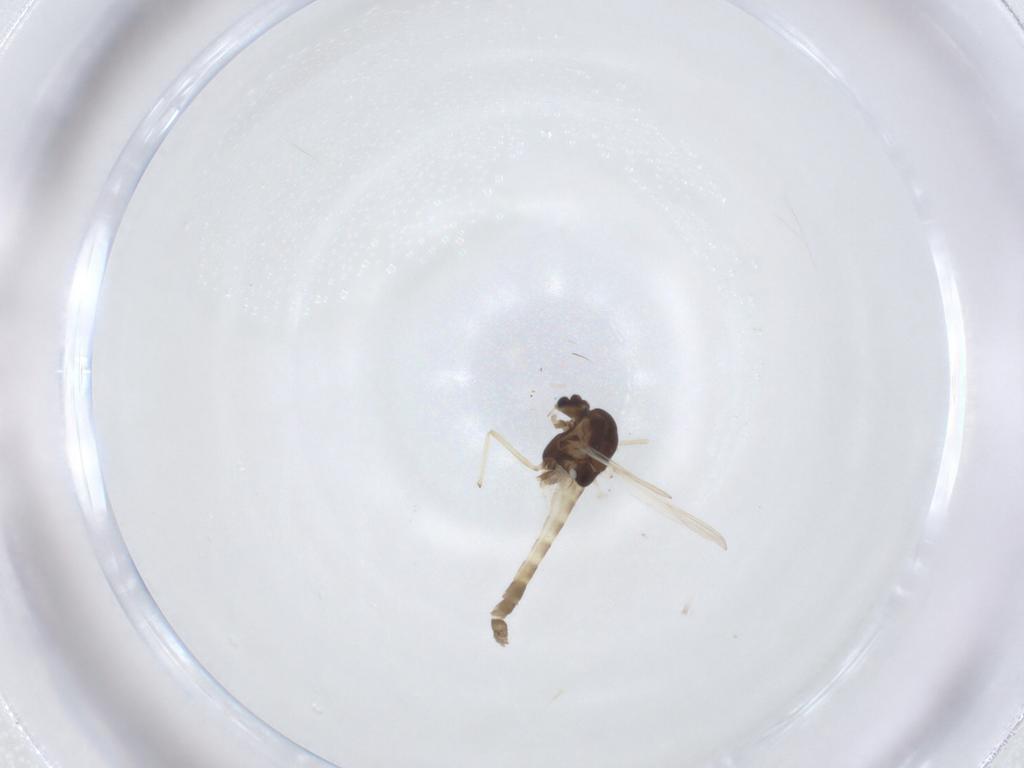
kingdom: Animalia
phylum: Arthropoda
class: Insecta
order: Diptera
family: Chironomidae
